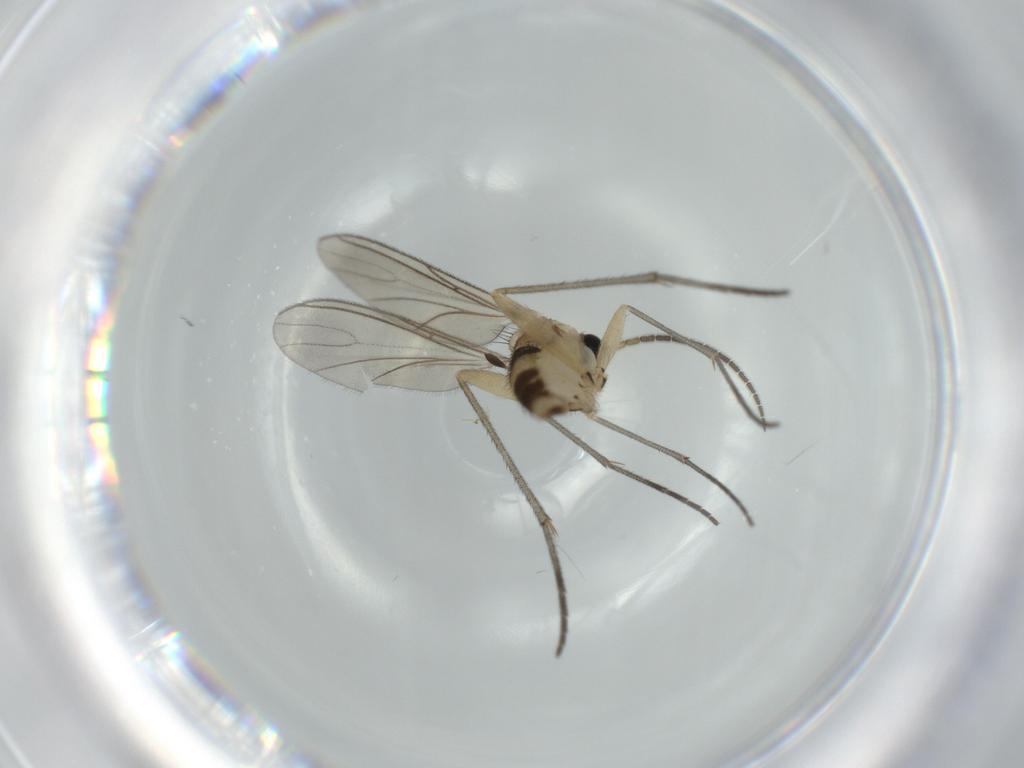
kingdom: Animalia
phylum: Arthropoda
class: Insecta
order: Diptera
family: Sciaridae
